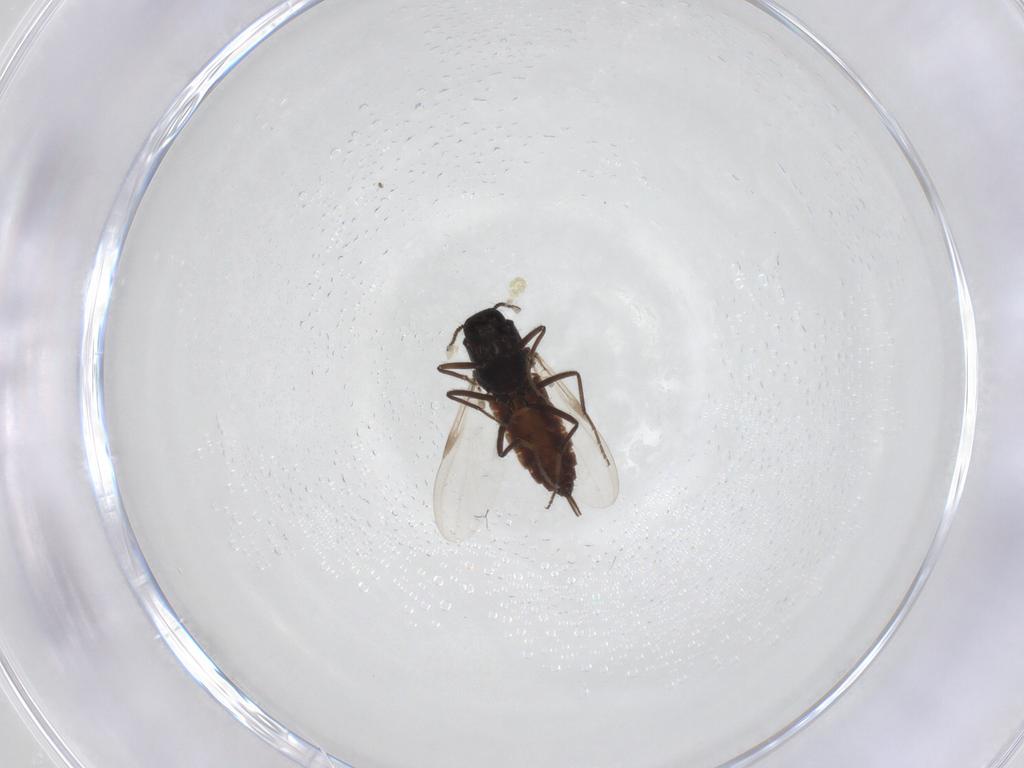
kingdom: Animalia
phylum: Arthropoda
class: Insecta
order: Diptera
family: Ceratopogonidae
